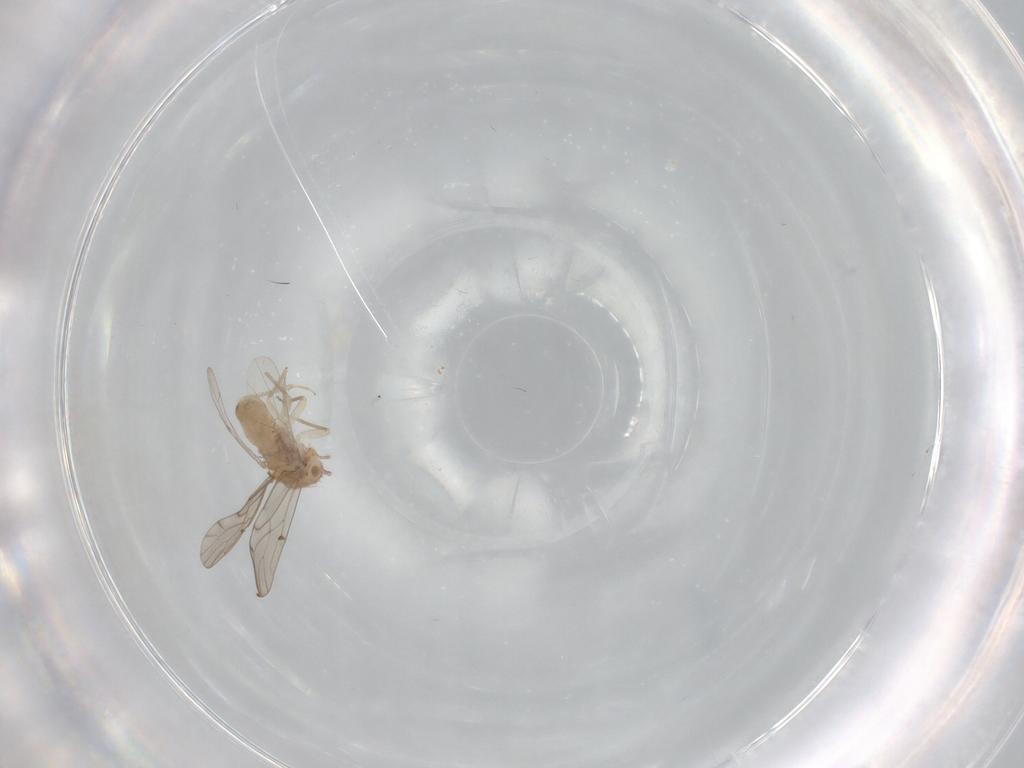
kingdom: Animalia
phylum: Arthropoda
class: Insecta
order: Psocodea
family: Ectopsocidae
